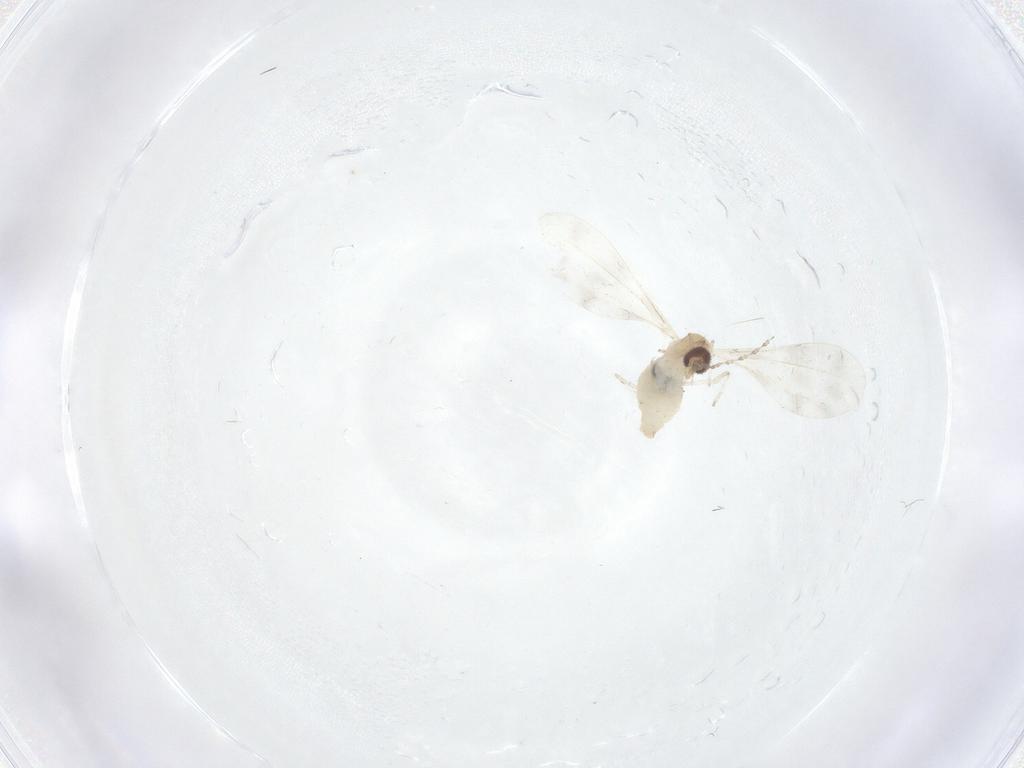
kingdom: Animalia
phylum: Arthropoda
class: Insecta
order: Diptera
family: Cecidomyiidae
